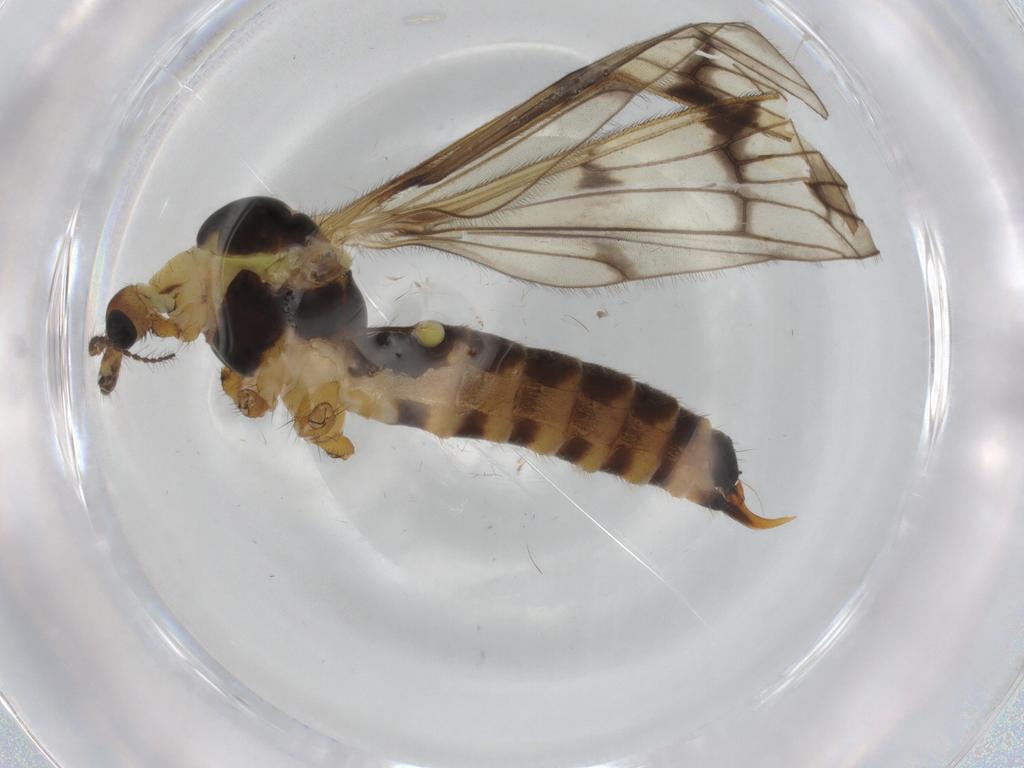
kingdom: Animalia
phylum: Arthropoda
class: Insecta
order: Diptera
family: Limoniidae
